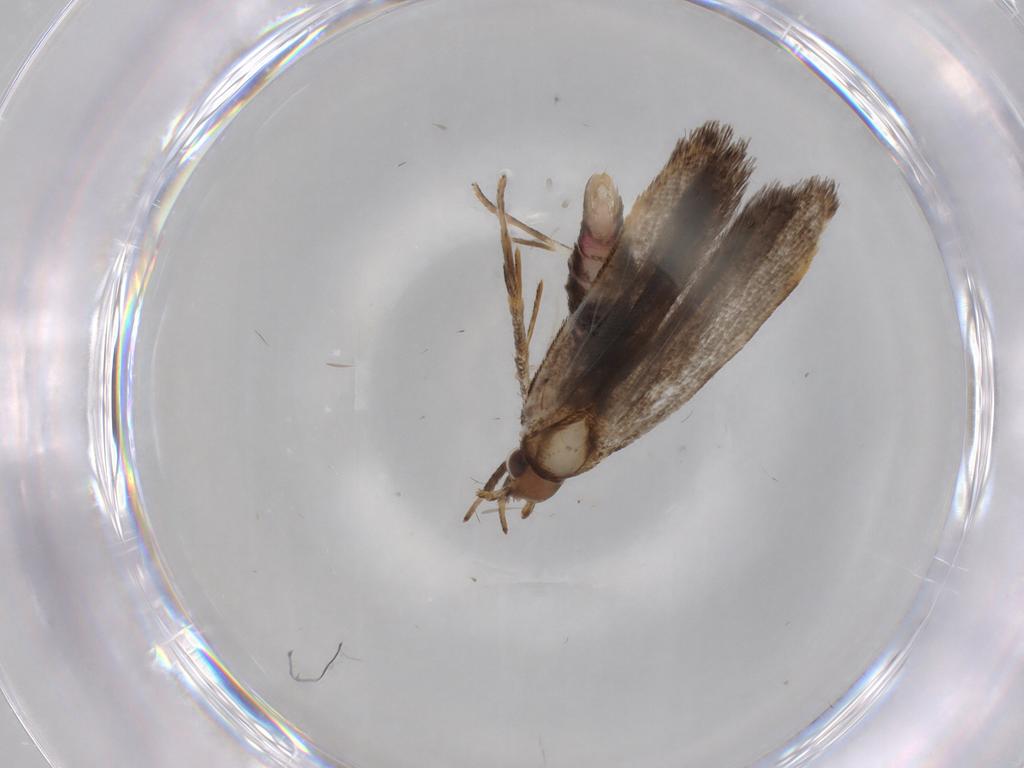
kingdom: Animalia
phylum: Arthropoda
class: Insecta
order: Lepidoptera
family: Gelechiidae
